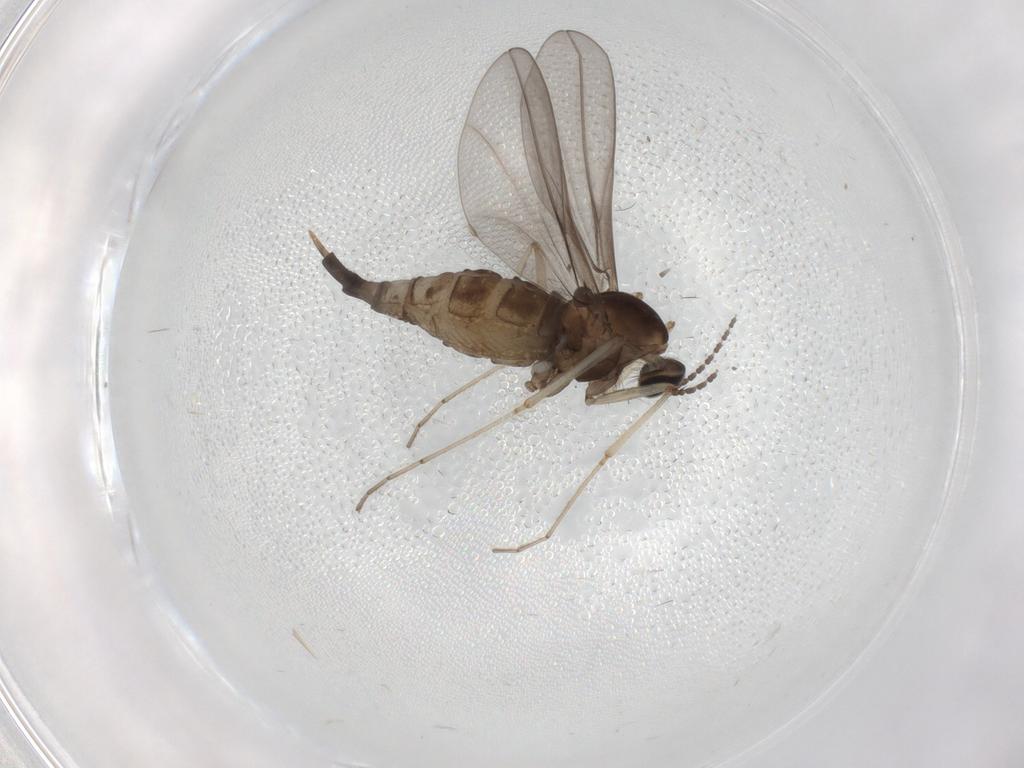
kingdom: Animalia
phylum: Arthropoda
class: Insecta
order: Diptera
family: Cecidomyiidae
